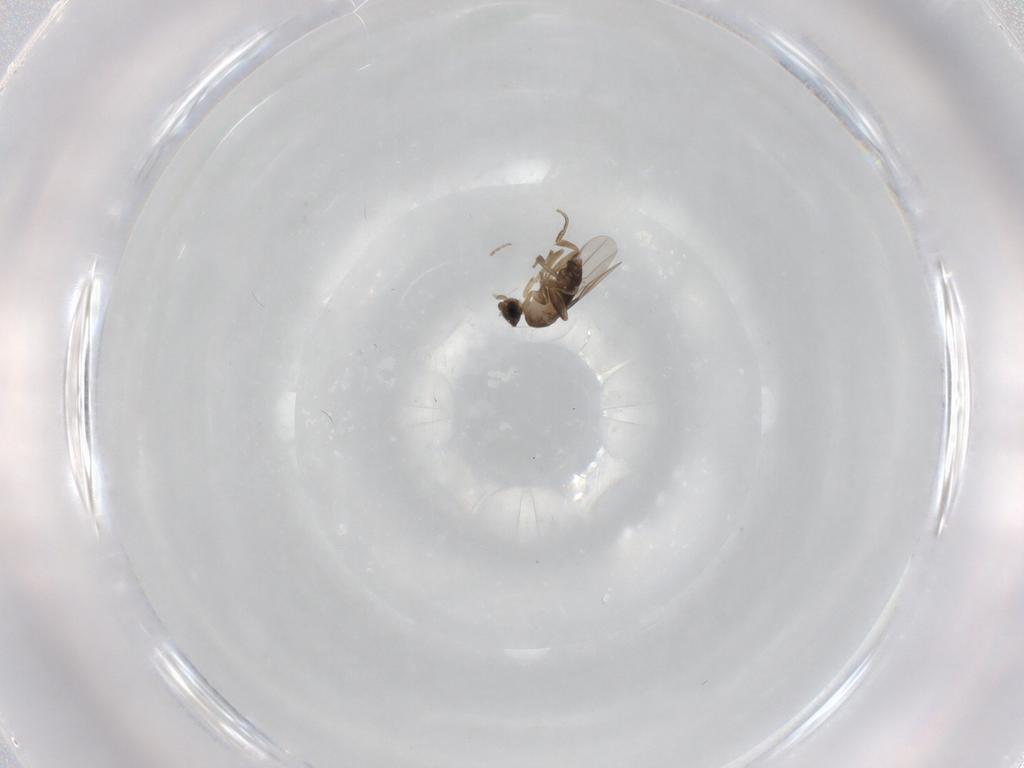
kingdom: Animalia
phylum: Arthropoda
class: Insecta
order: Diptera
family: Phoridae
